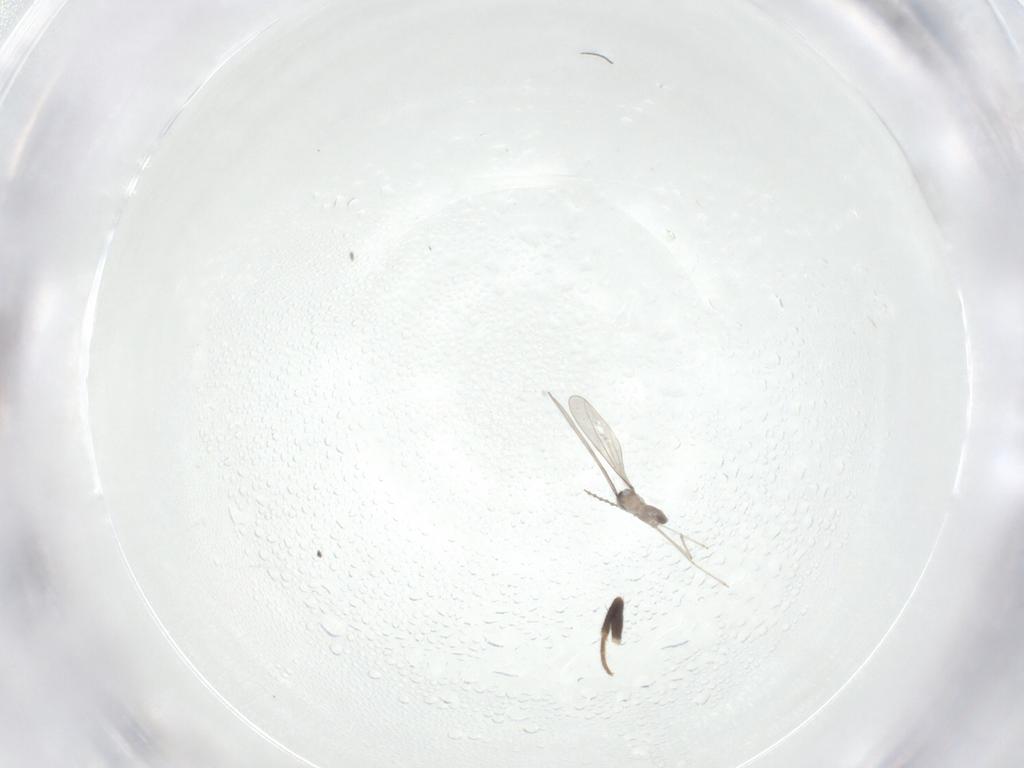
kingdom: Animalia
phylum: Arthropoda
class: Insecta
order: Diptera
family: Cecidomyiidae
